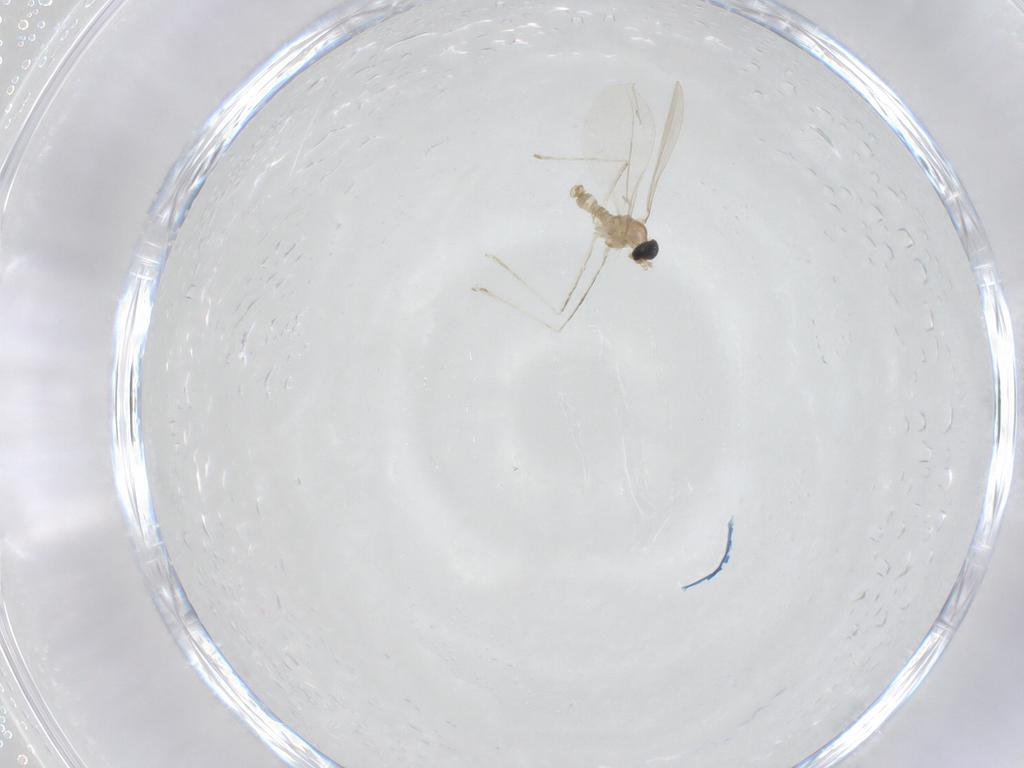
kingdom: Animalia
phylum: Arthropoda
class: Insecta
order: Diptera
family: Cecidomyiidae
